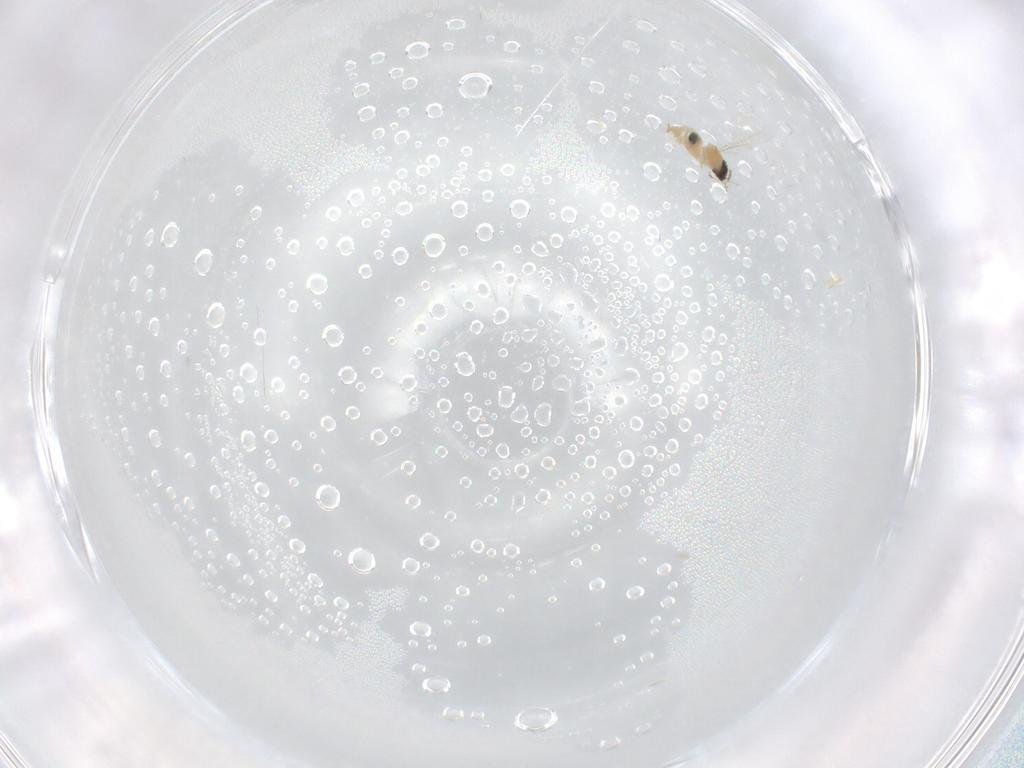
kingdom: Animalia
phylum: Arthropoda
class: Insecta
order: Diptera
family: Cecidomyiidae
